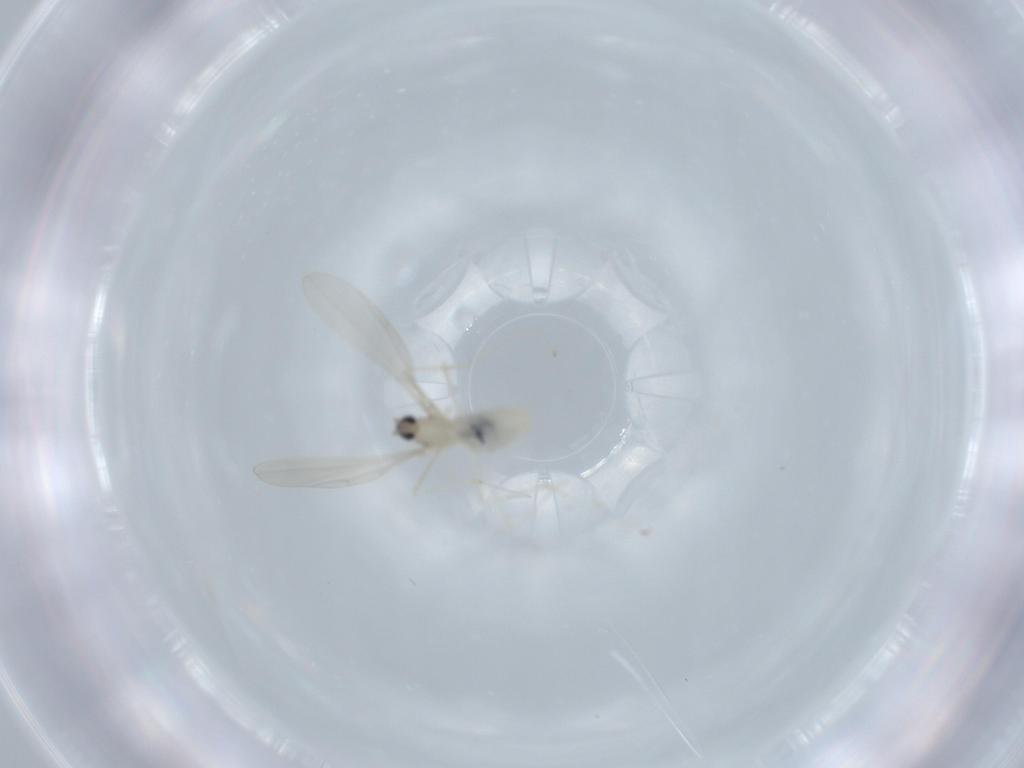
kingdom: Animalia
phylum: Arthropoda
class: Insecta
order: Diptera
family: Cecidomyiidae
